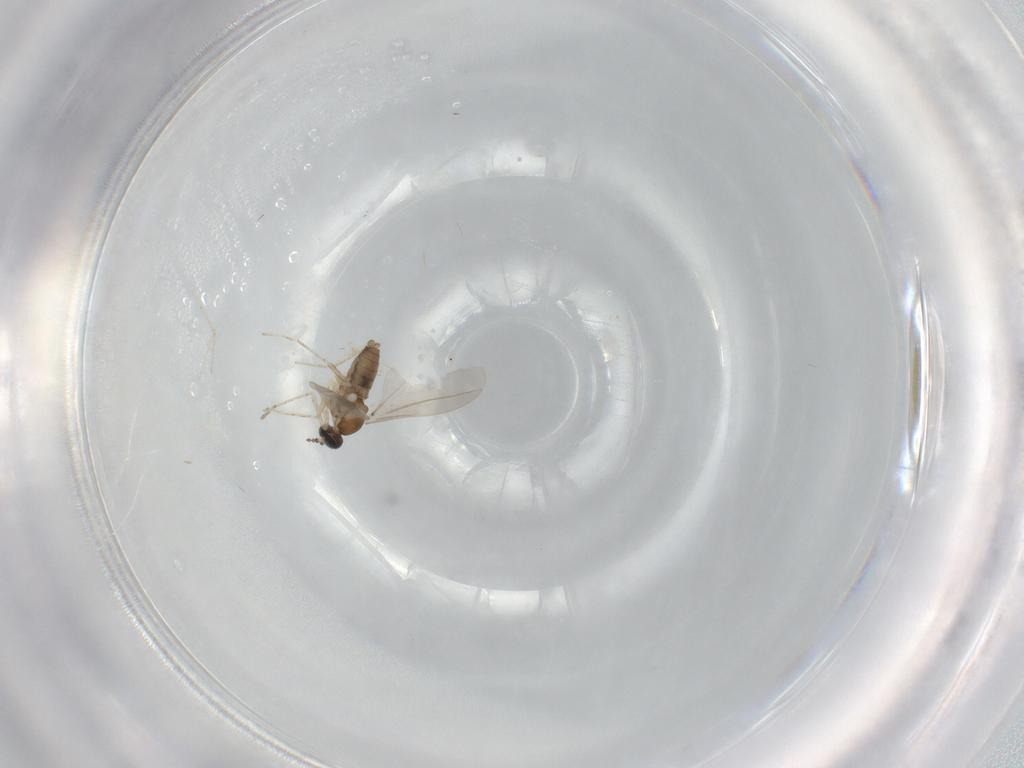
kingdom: Animalia
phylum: Arthropoda
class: Insecta
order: Diptera
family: Cecidomyiidae
